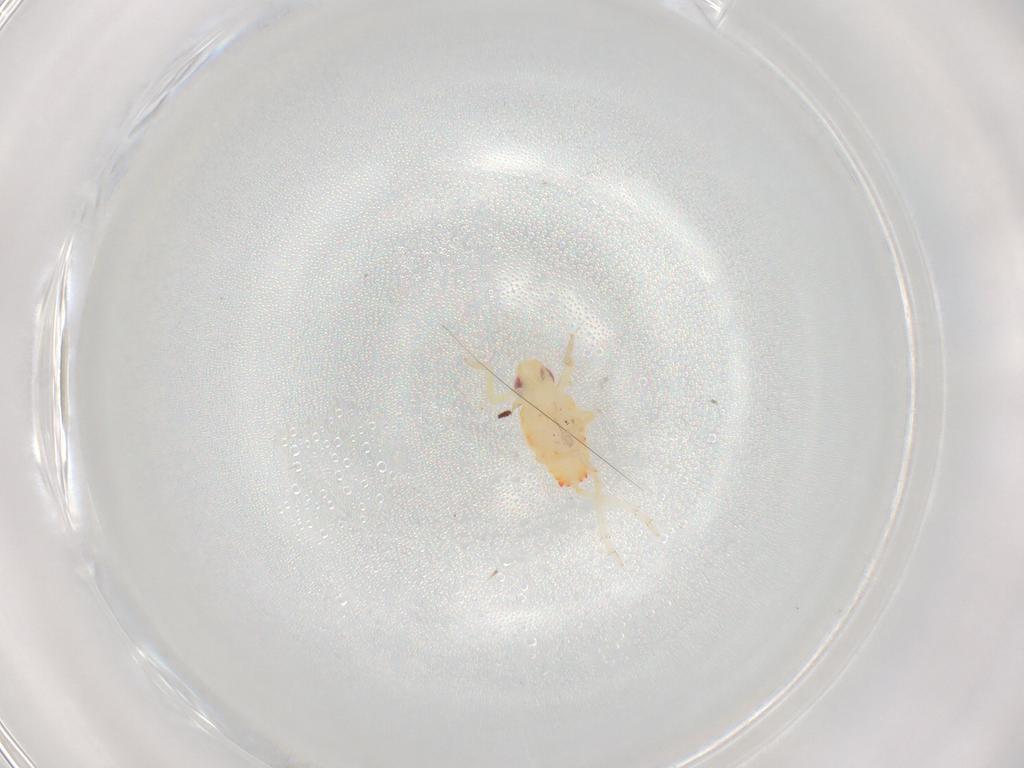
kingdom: Animalia
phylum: Arthropoda
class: Insecta
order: Hemiptera
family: Tropiduchidae
